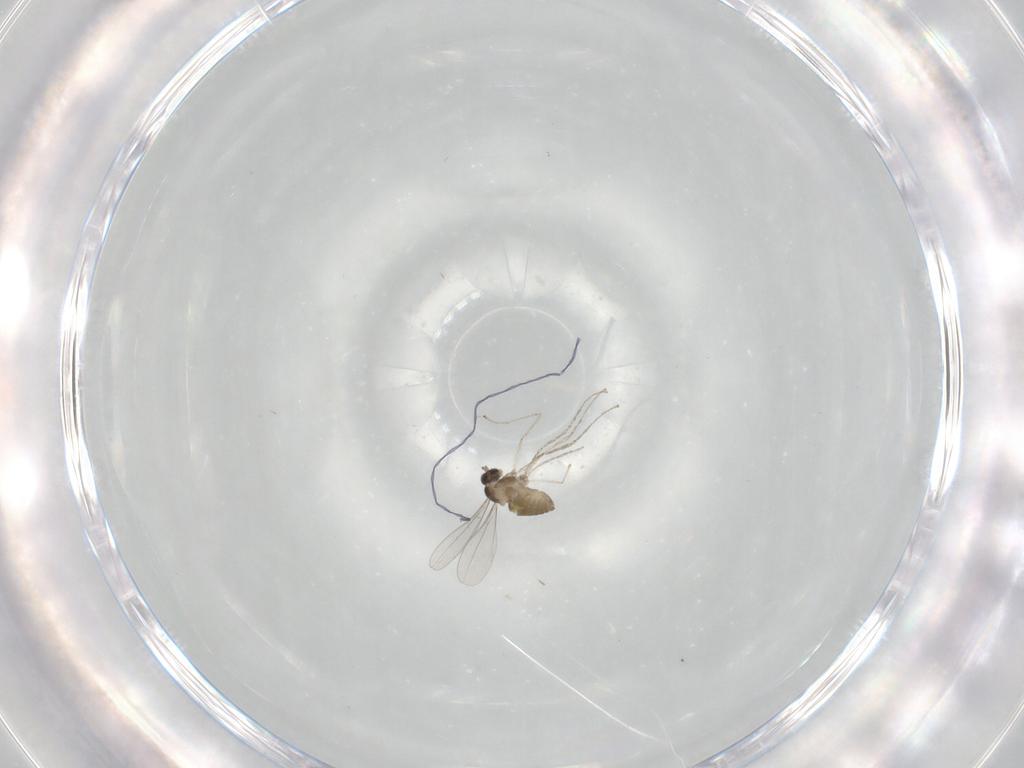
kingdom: Animalia
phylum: Arthropoda
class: Insecta
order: Diptera
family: Cecidomyiidae
